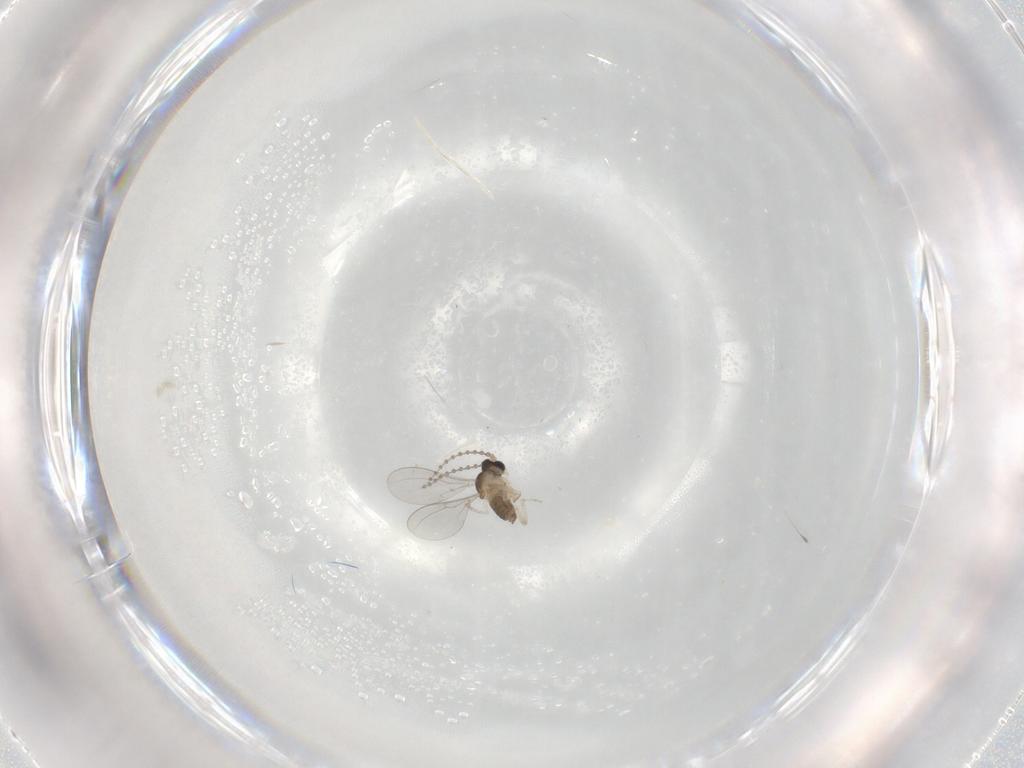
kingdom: Animalia
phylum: Arthropoda
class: Insecta
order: Diptera
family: Cecidomyiidae
